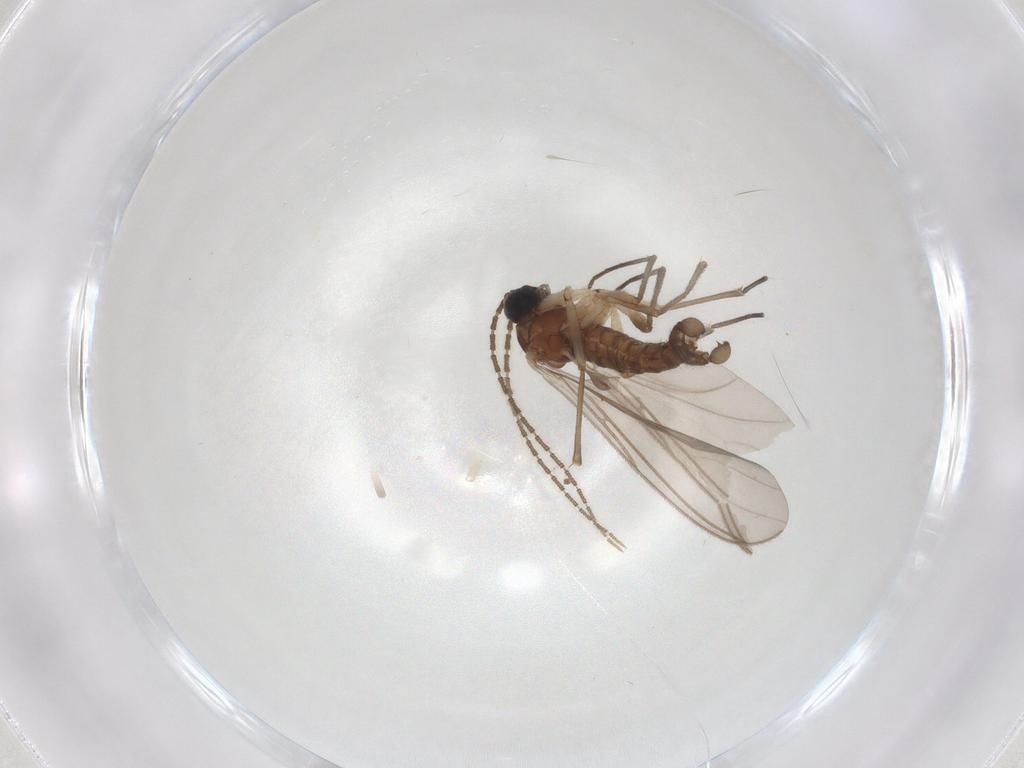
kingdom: Animalia
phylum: Arthropoda
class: Insecta
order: Diptera
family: Sciaridae
